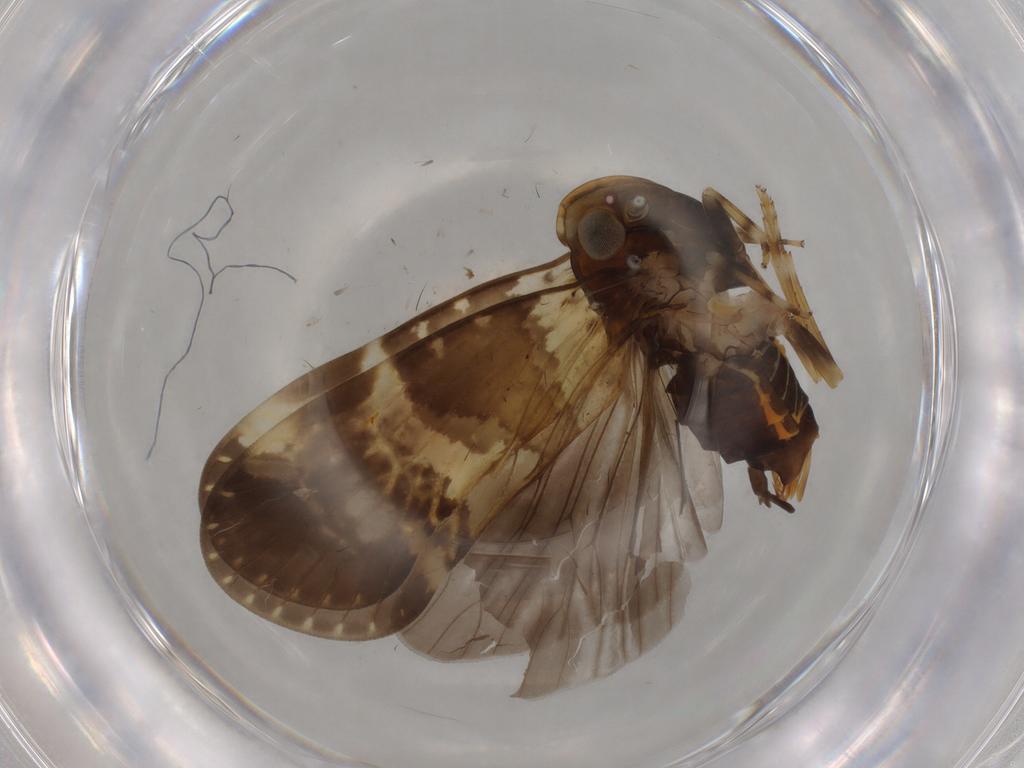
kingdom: Animalia
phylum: Arthropoda
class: Insecta
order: Hemiptera
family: Cixiidae
